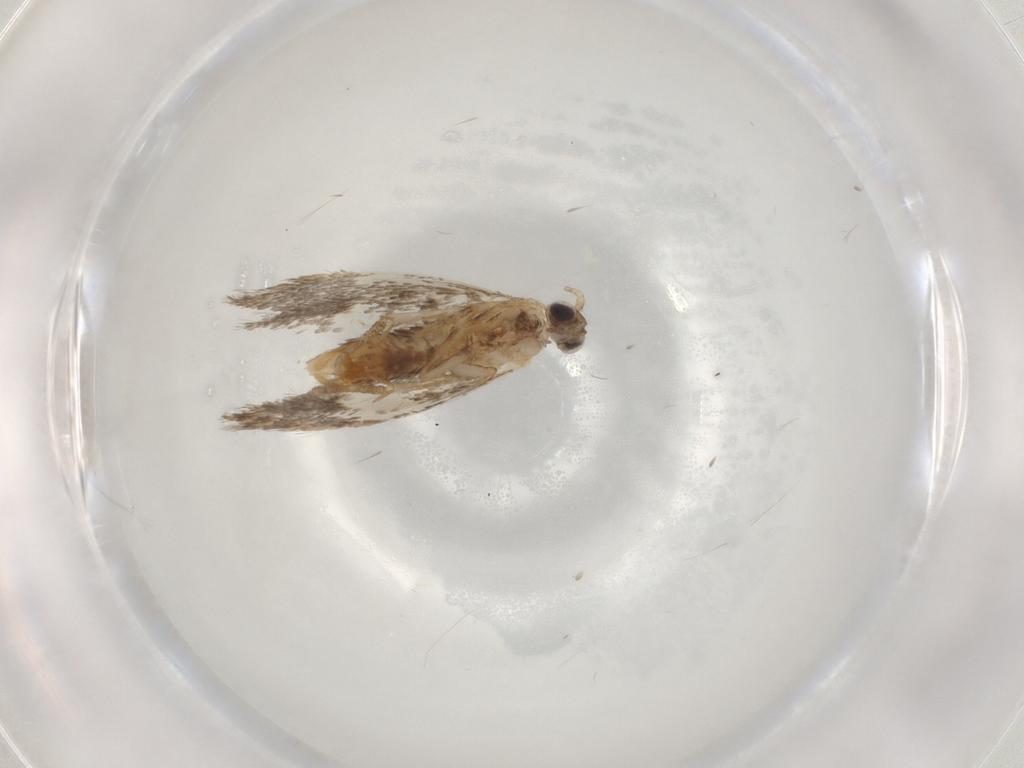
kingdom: Animalia
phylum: Arthropoda
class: Insecta
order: Lepidoptera
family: Tineidae
